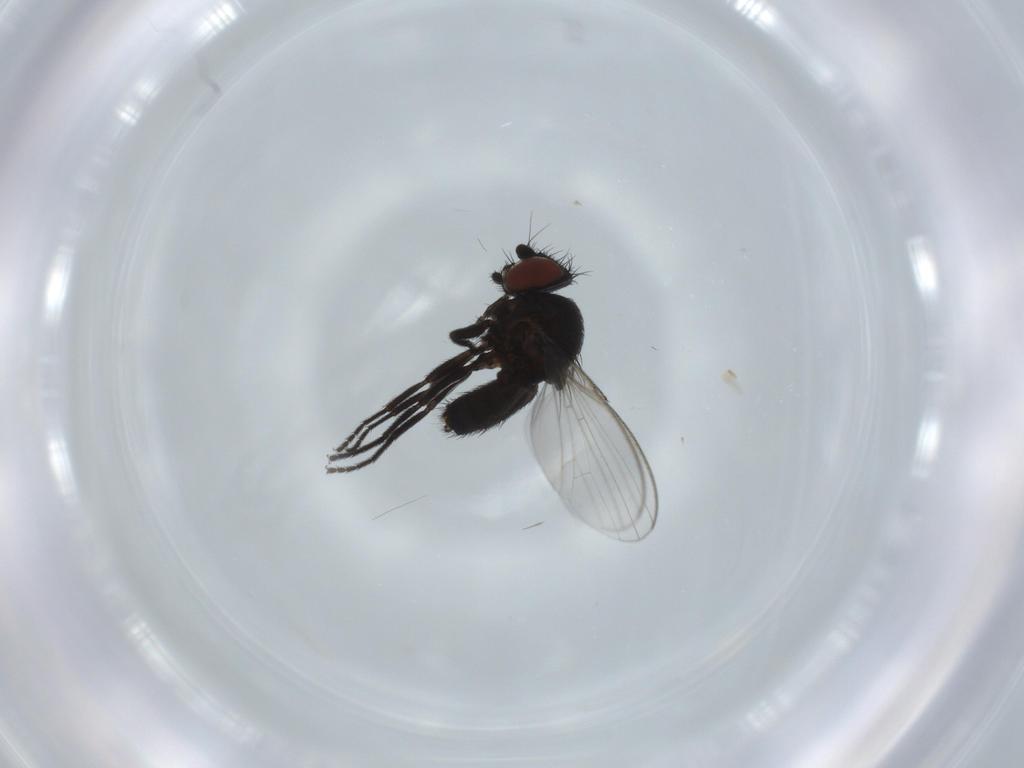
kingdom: Animalia
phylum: Arthropoda
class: Insecta
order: Diptera
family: Milichiidae
